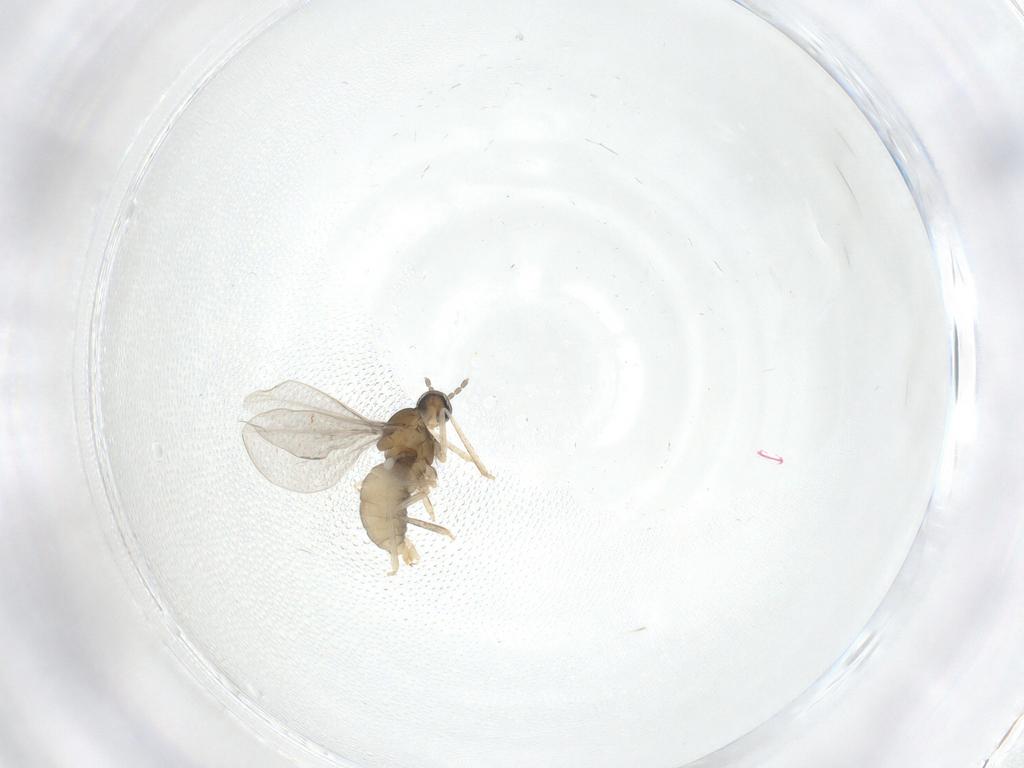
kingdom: Animalia
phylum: Arthropoda
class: Insecta
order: Diptera
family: Cecidomyiidae
